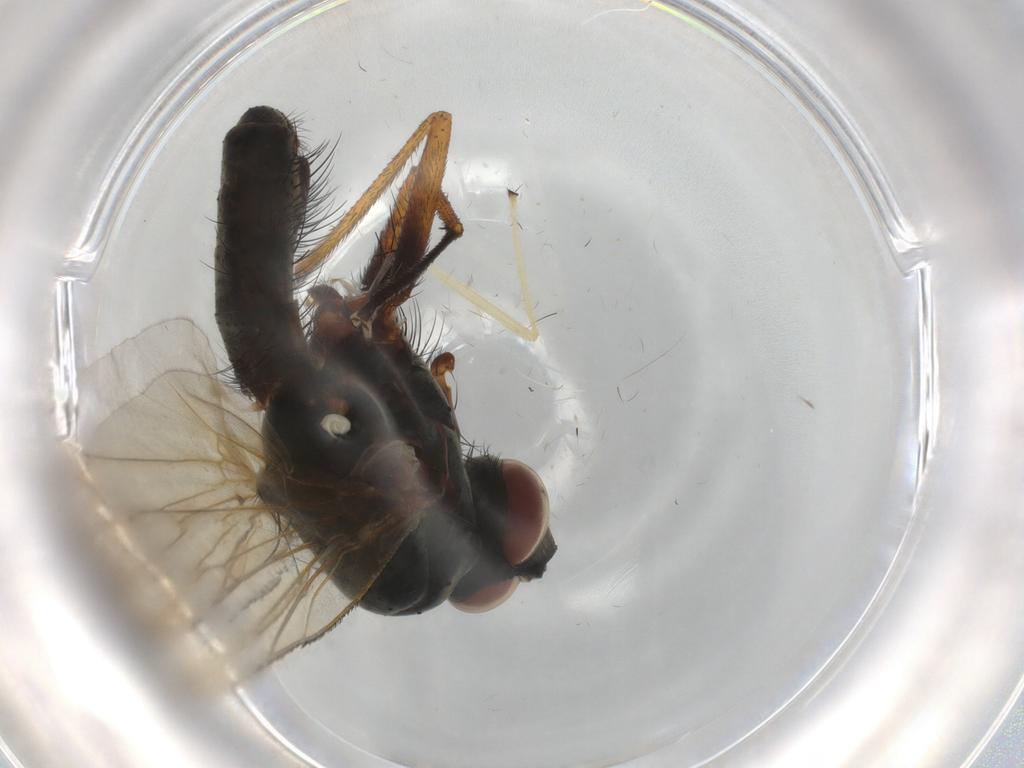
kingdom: Animalia
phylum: Arthropoda
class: Insecta
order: Diptera
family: Anthomyiidae
